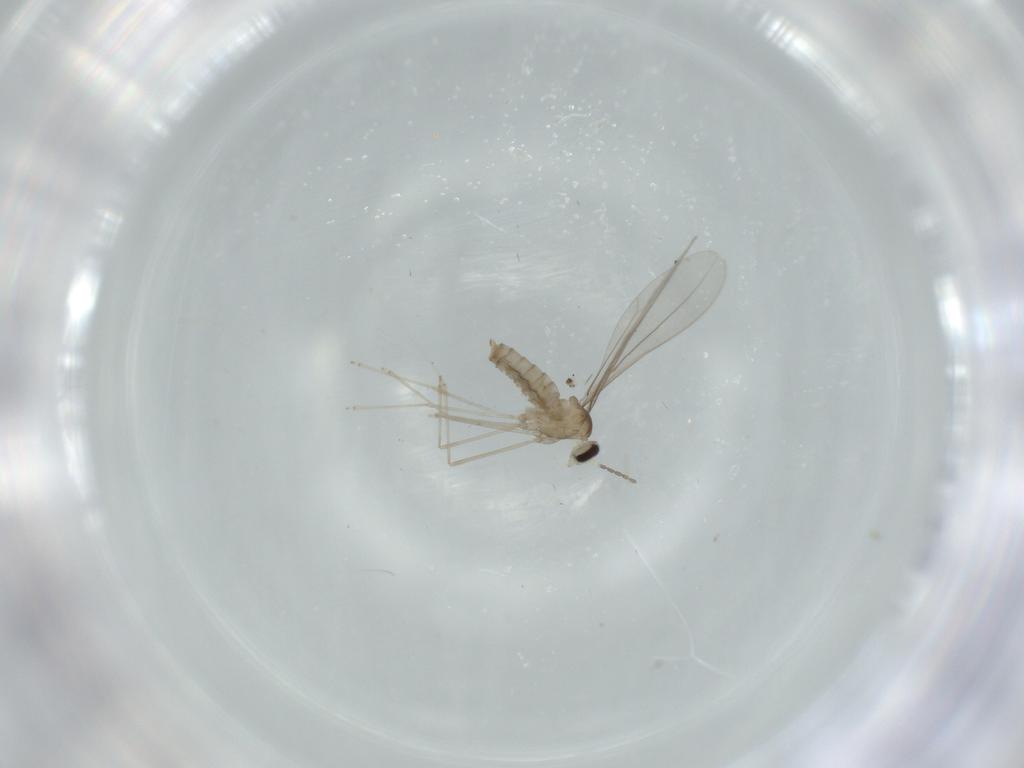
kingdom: Animalia
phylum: Arthropoda
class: Insecta
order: Diptera
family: Cecidomyiidae
